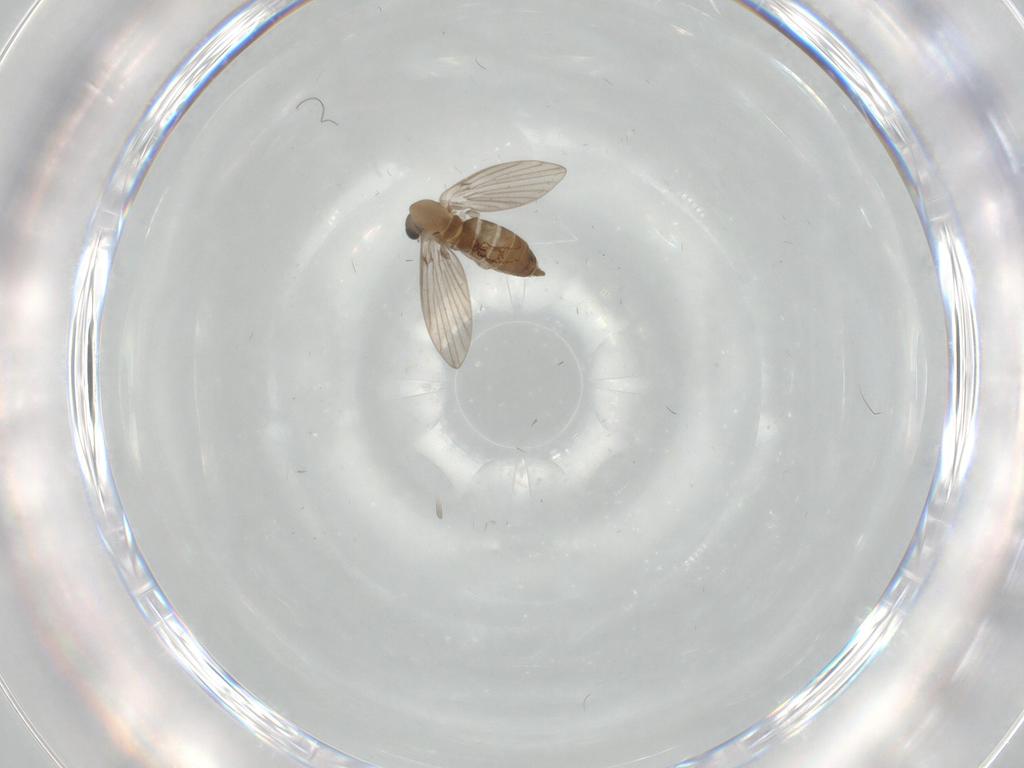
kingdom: Animalia
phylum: Arthropoda
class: Insecta
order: Diptera
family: Psychodidae
